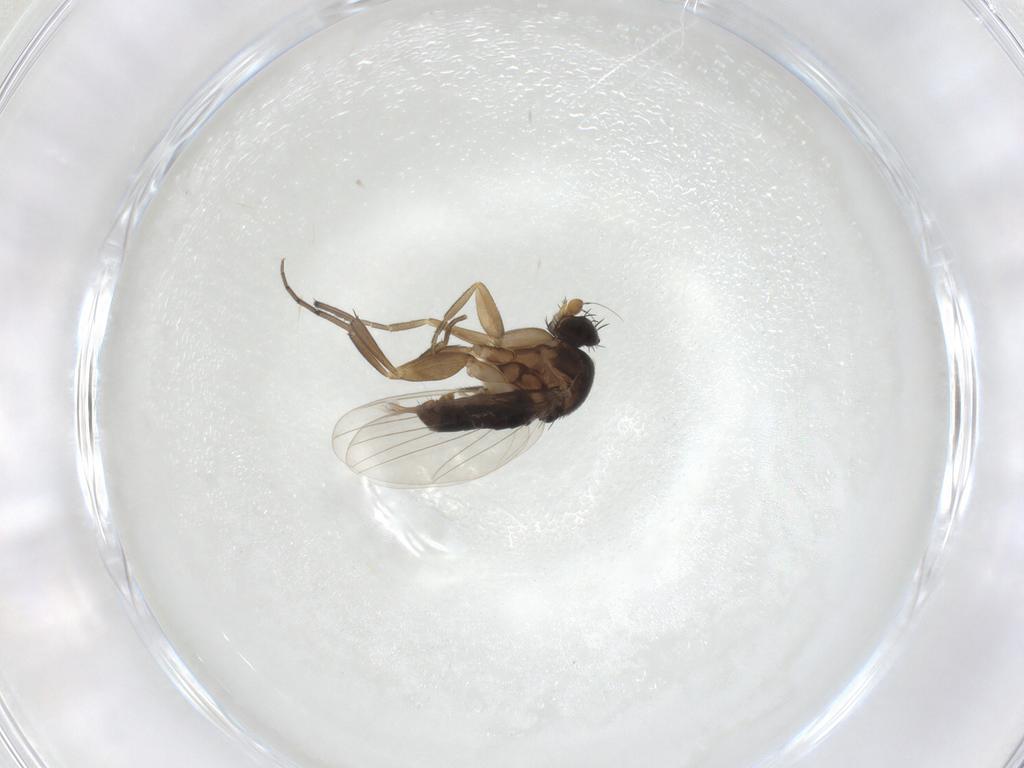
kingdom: Animalia
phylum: Arthropoda
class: Insecta
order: Diptera
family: Phoridae
